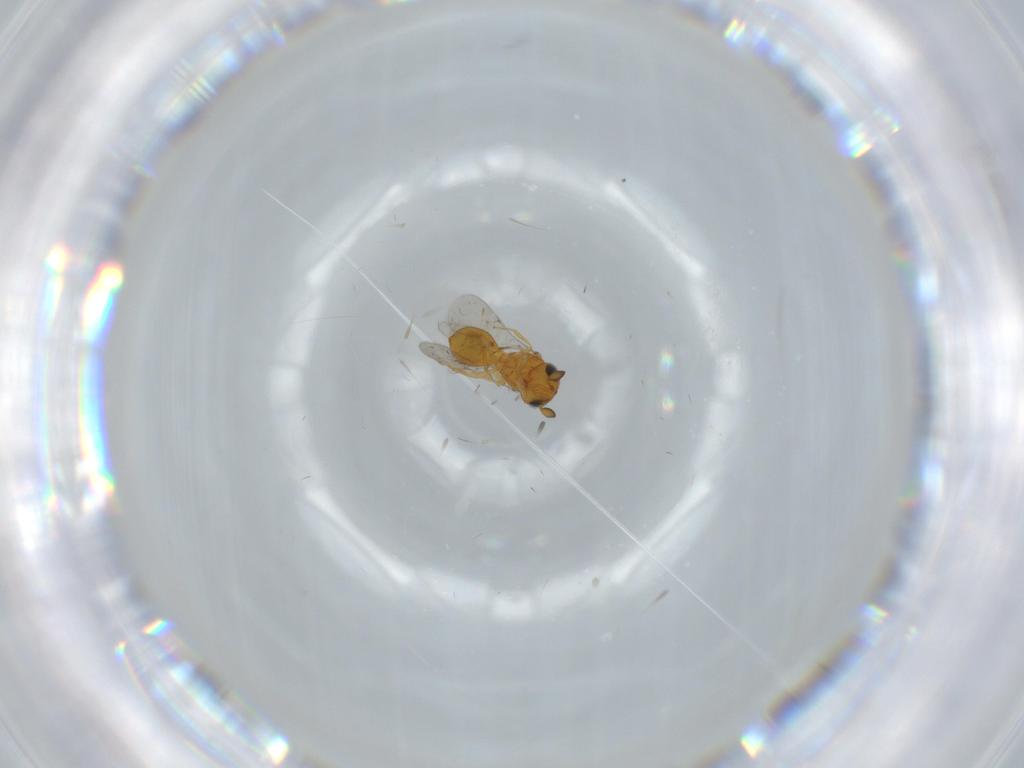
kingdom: Animalia
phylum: Arthropoda
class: Insecta
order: Hymenoptera
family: Scelionidae
